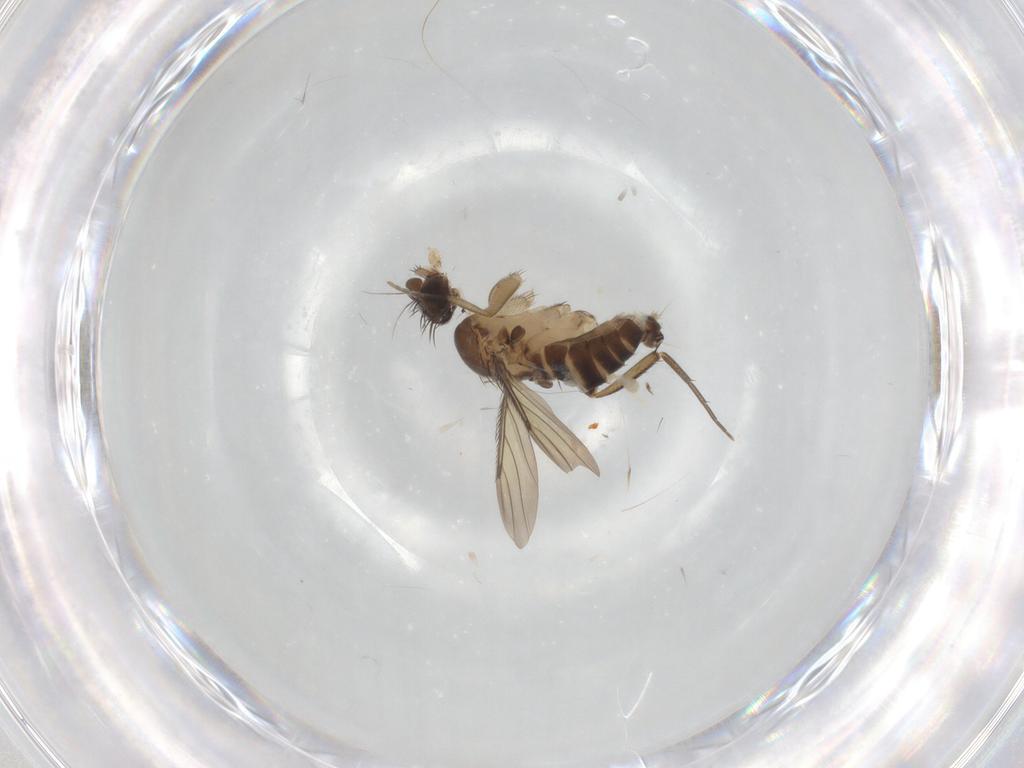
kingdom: Animalia
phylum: Arthropoda
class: Insecta
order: Diptera
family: Phoridae
